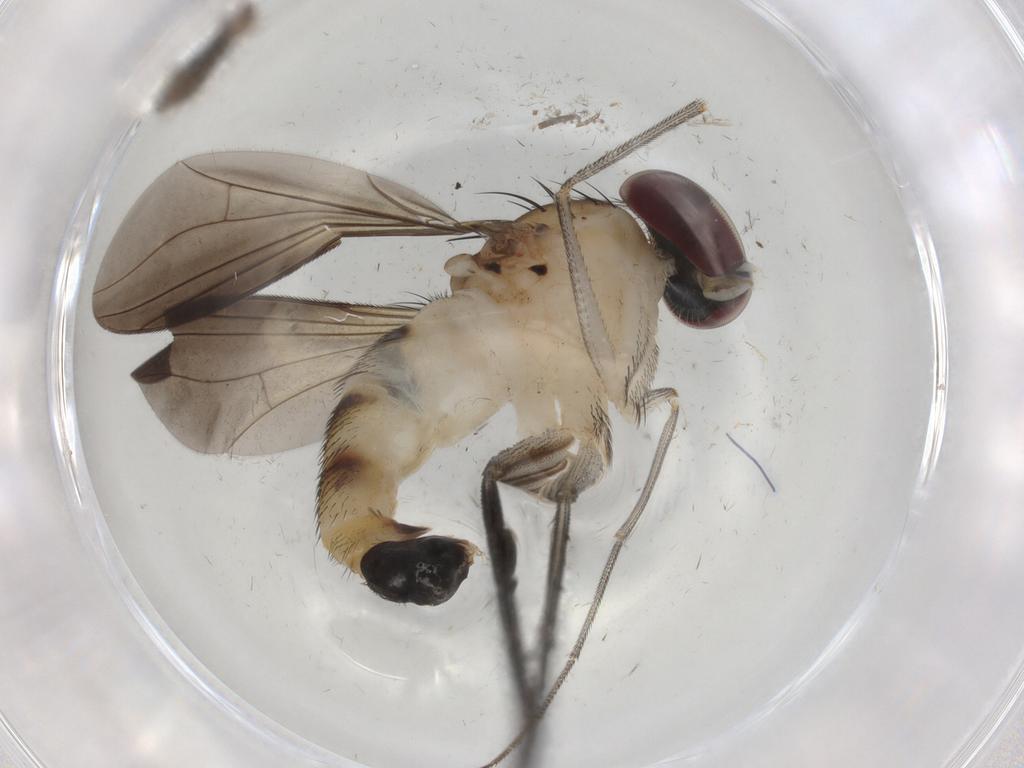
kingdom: Animalia
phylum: Arthropoda
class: Insecta
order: Diptera
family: Dolichopodidae
